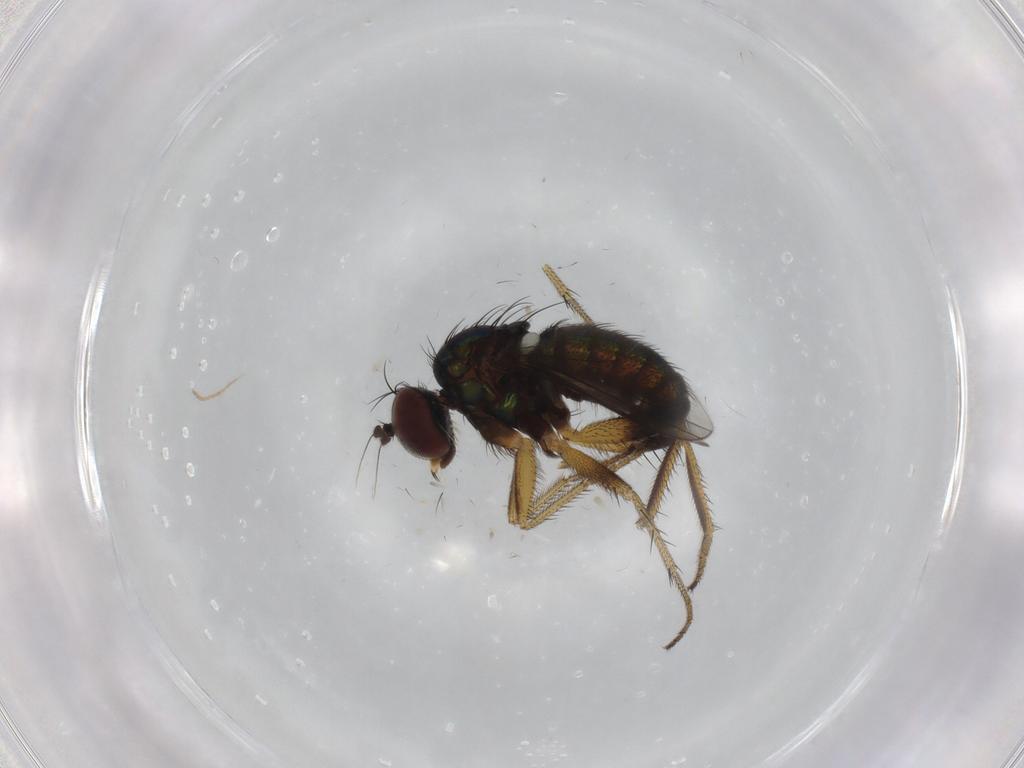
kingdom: Animalia
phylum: Arthropoda
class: Insecta
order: Diptera
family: Dolichopodidae
